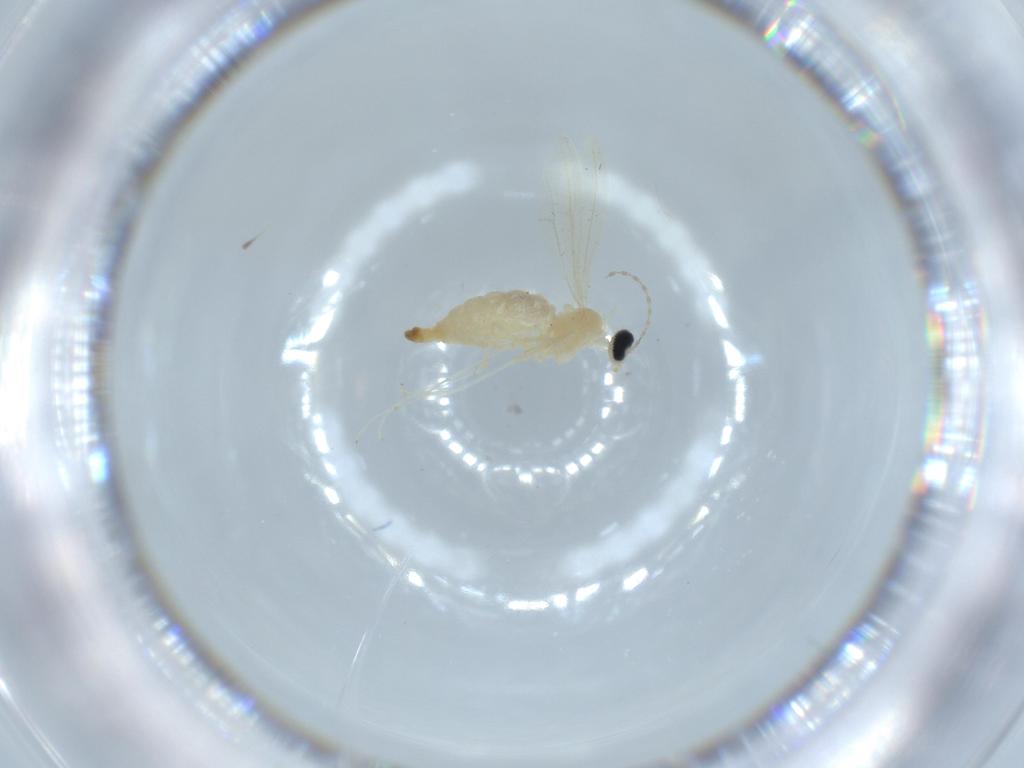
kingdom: Animalia
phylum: Arthropoda
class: Insecta
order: Diptera
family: Cecidomyiidae
